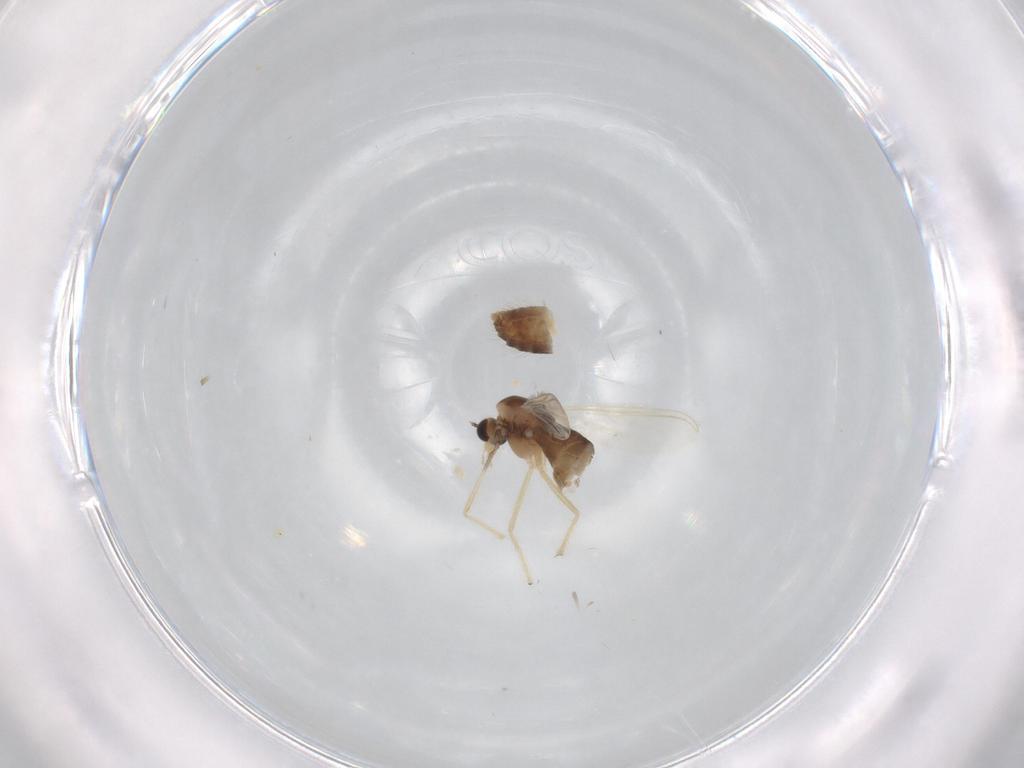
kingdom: Animalia
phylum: Arthropoda
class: Insecta
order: Diptera
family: Chironomidae
